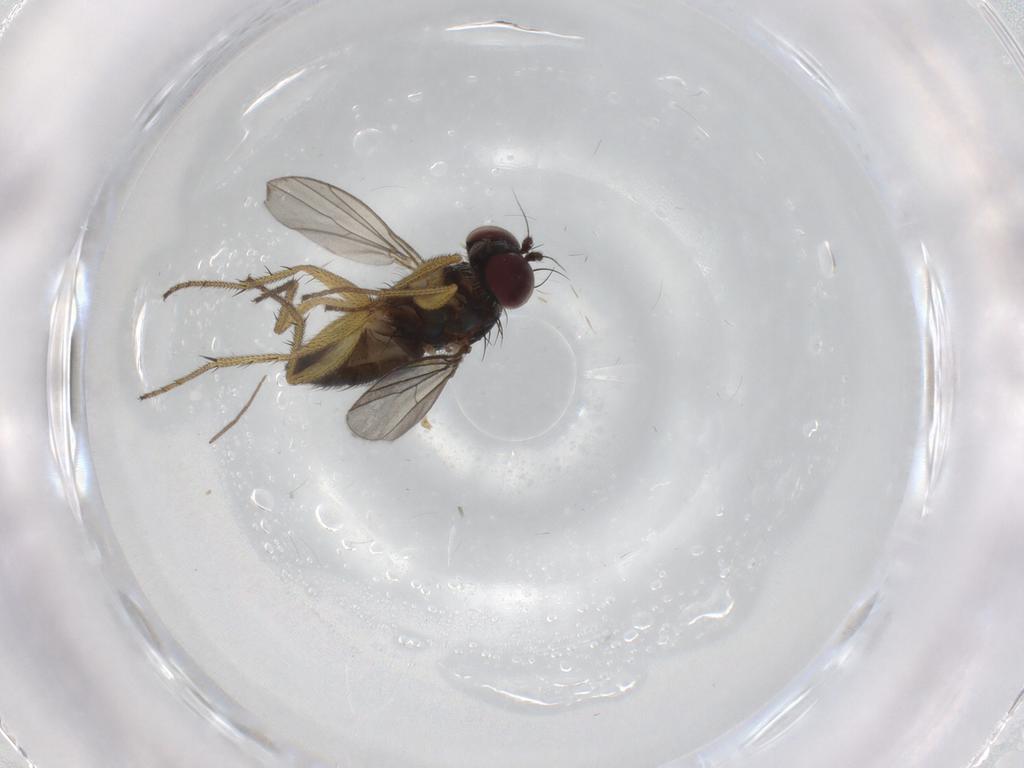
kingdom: Animalia
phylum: Arthropoda
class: Insecta
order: Diptera
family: Dolichopodidae
